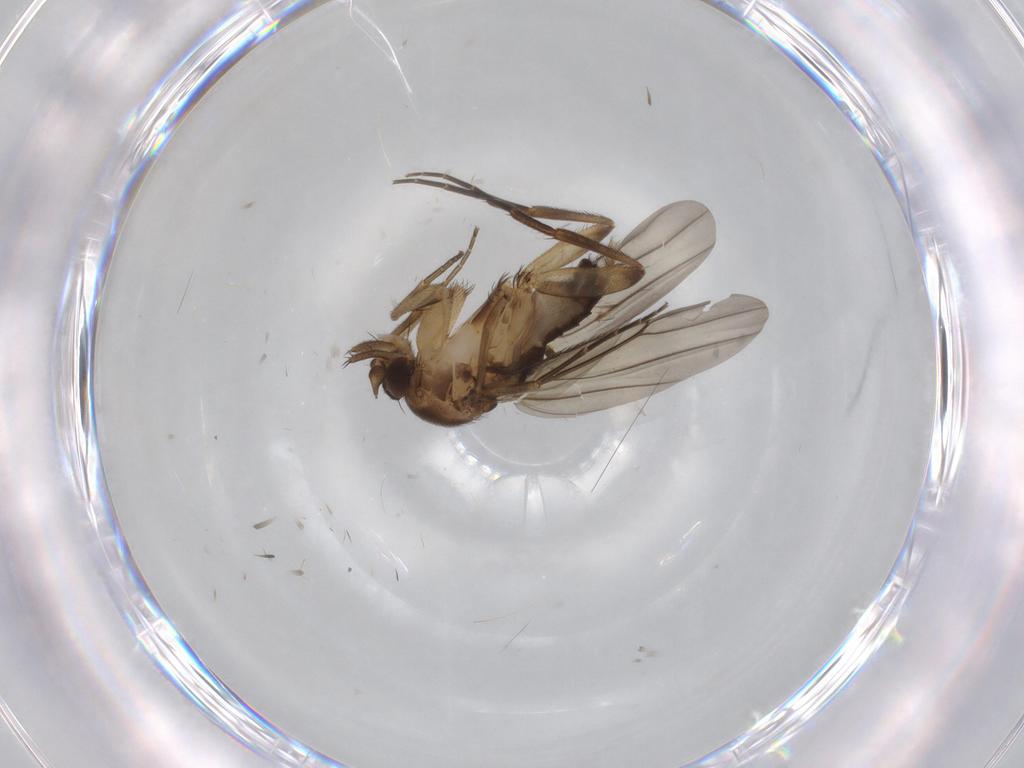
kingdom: Animalia
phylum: Arthropoda
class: Insecta
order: Diptera
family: Phoridae
